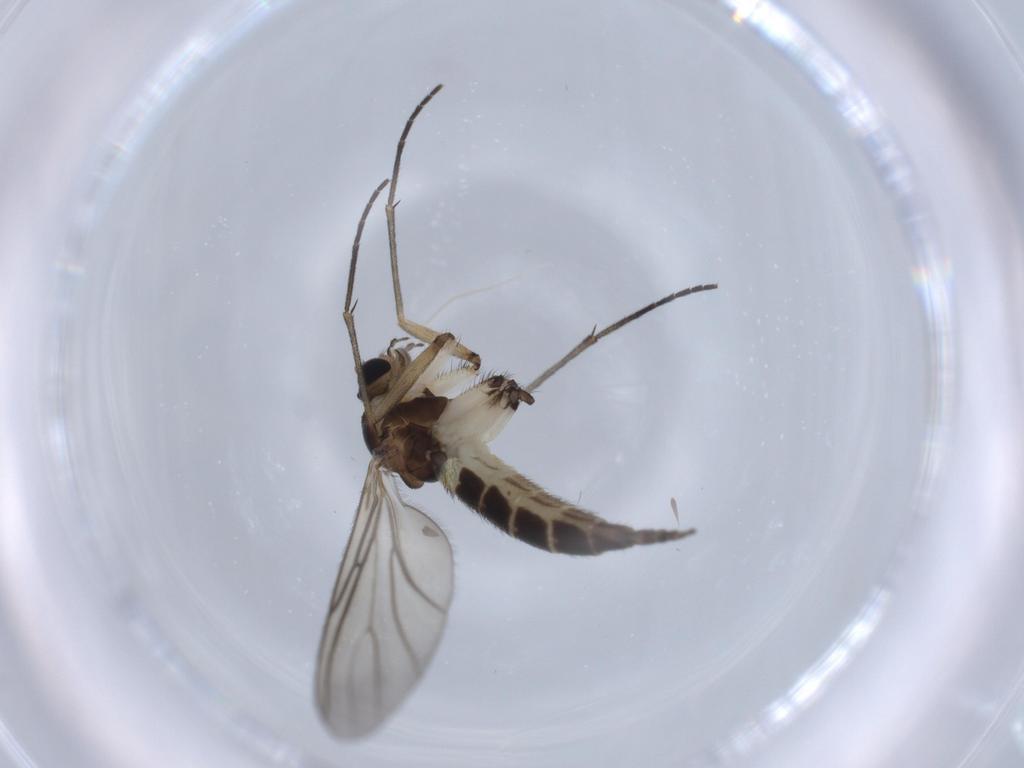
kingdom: Animalia
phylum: Arthropoda
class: Insecta
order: Diptera
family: Sciaridae
